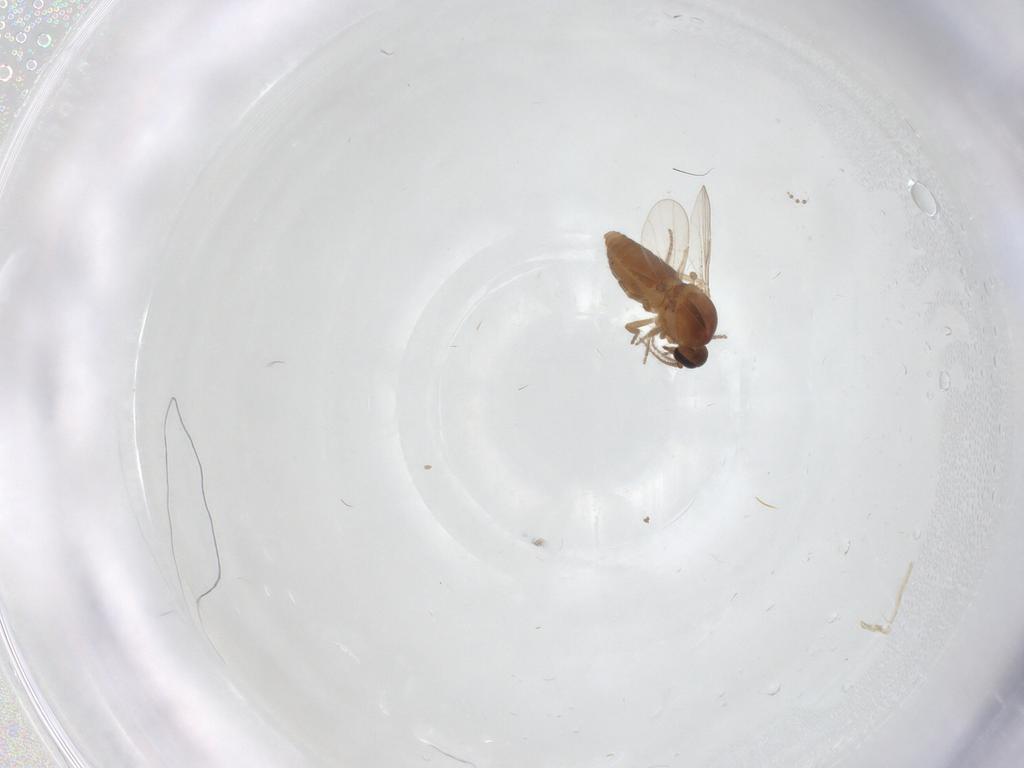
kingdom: Animalia
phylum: Arthropoda
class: Insecta
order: Diptera
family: Ceratopogonidae
